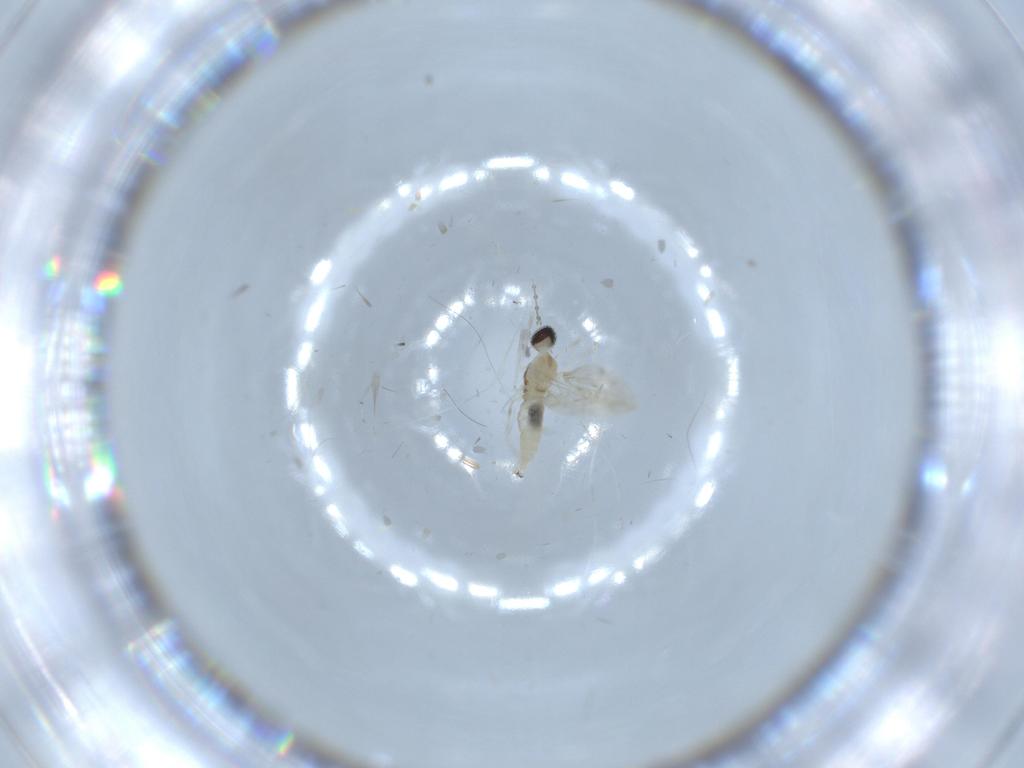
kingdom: Animalia
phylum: Arthropoda
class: Insecta
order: Diptera
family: Cecidomyiidae
